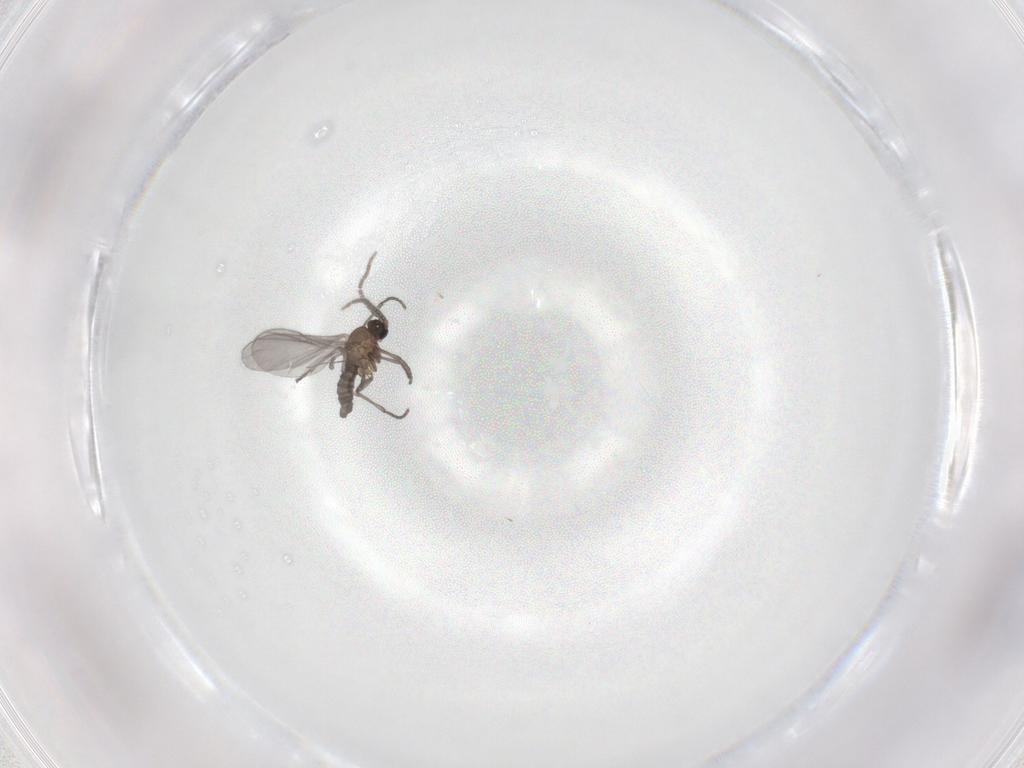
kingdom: Animalia
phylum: Arthropoda
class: Insecta
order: Diptera
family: Sciaridae
